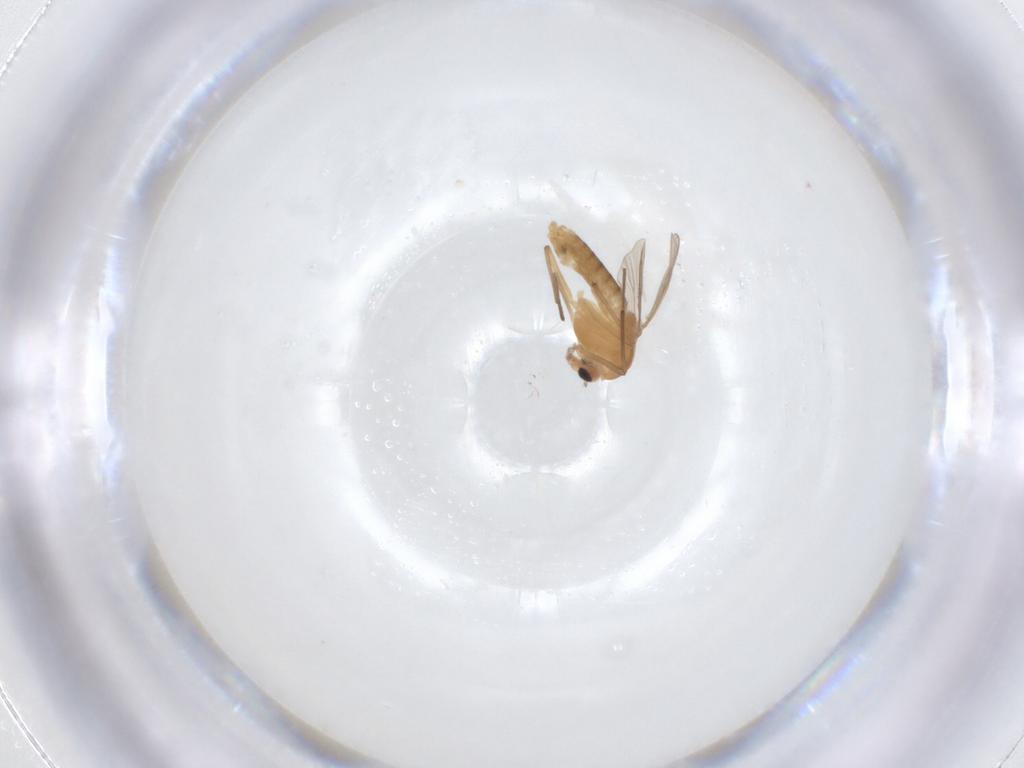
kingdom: Animalia
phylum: Arthropoda
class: Insecta
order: Diptera
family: Chironomidae
